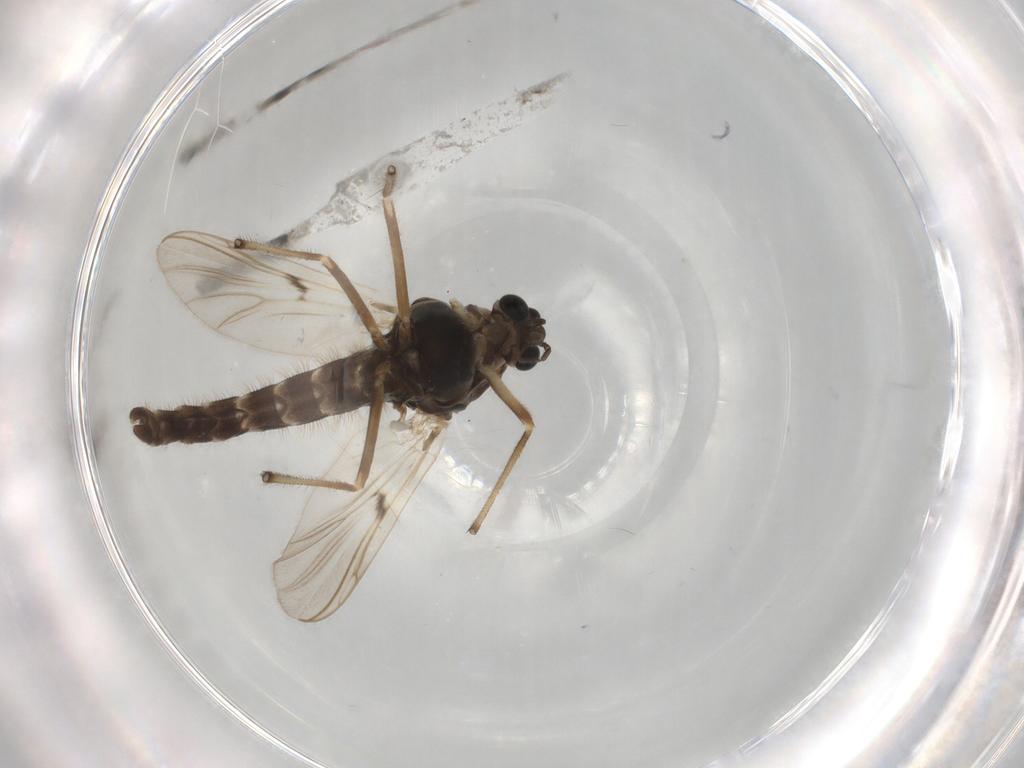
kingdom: Animalia
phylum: Arthropoda
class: Insecta
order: Diptera
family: Chironomidae
